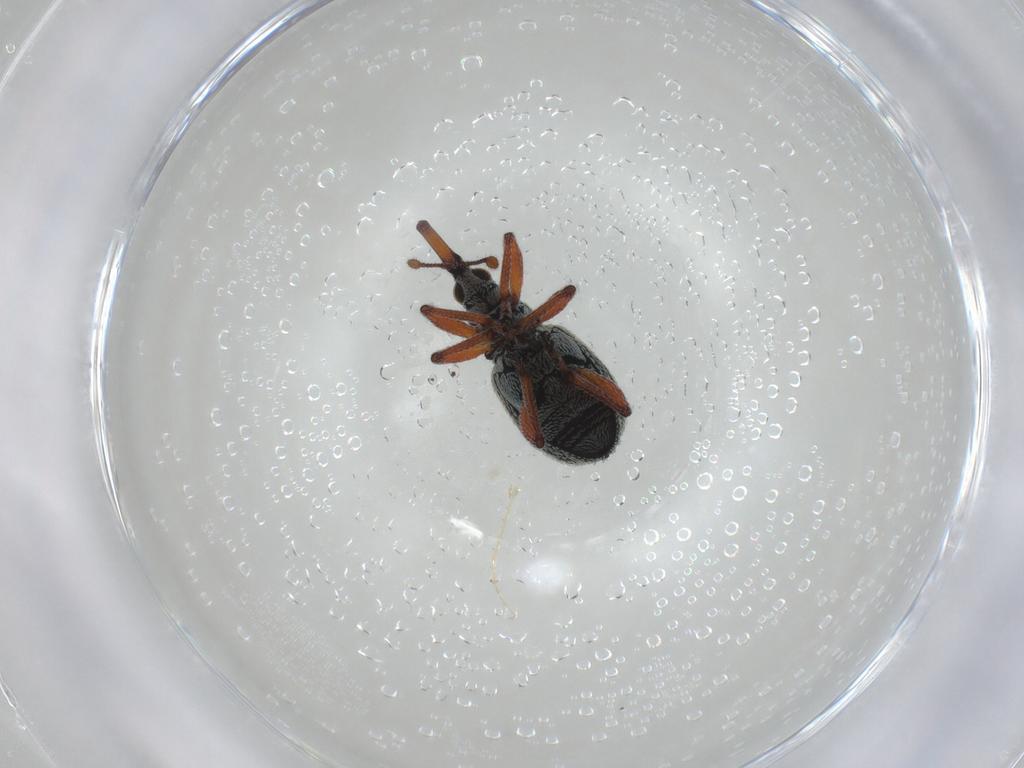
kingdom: Animalia
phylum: Arthropoda
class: Insecta
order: Coleoptera
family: Brentidae
